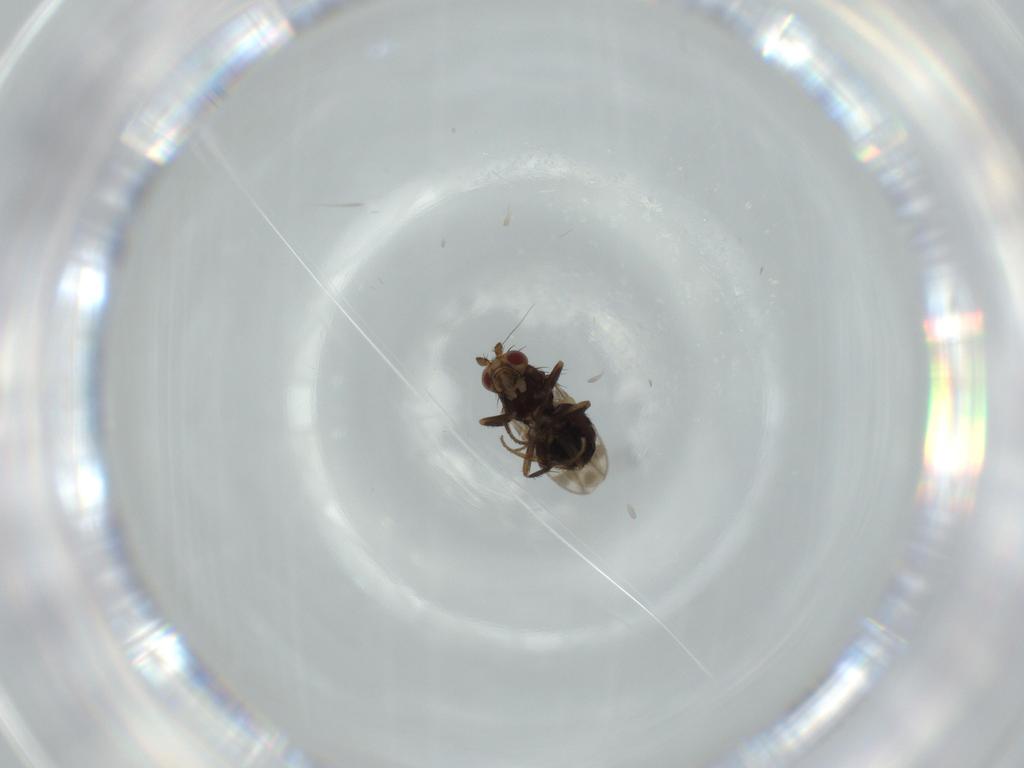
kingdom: Animalia
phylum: Arthropoda
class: Insecta
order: Diptera
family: Sphaeroceridae
